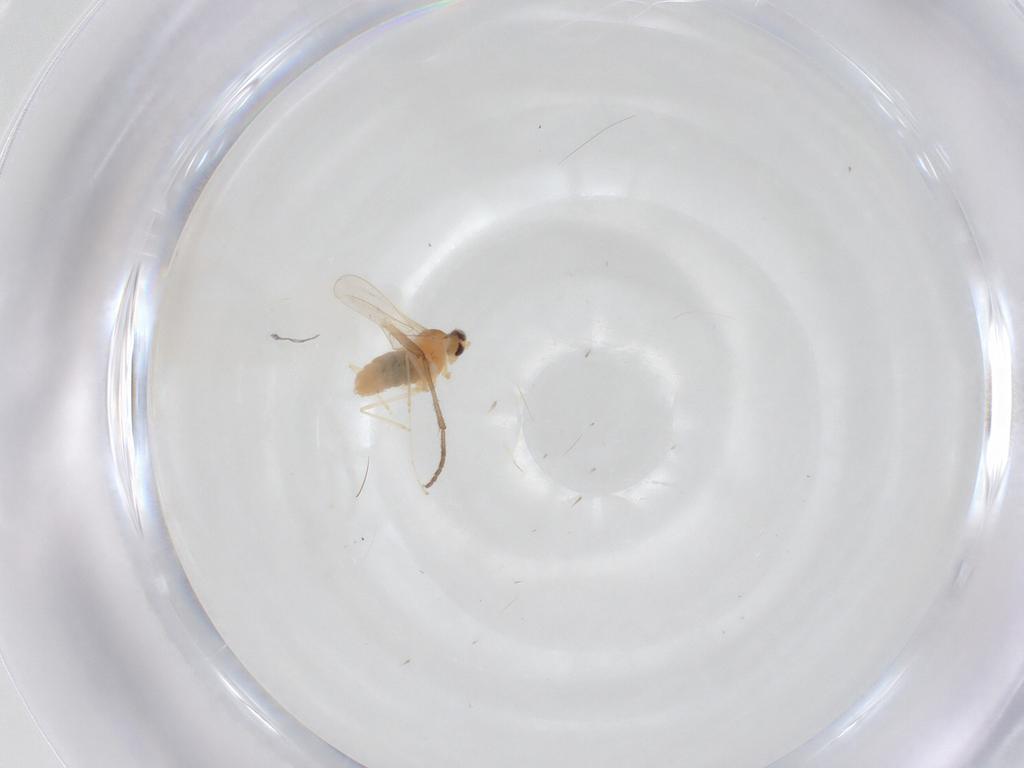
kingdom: Animalia
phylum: Arthropoda
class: Insecta
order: Diptera
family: Cecidomyiidae
